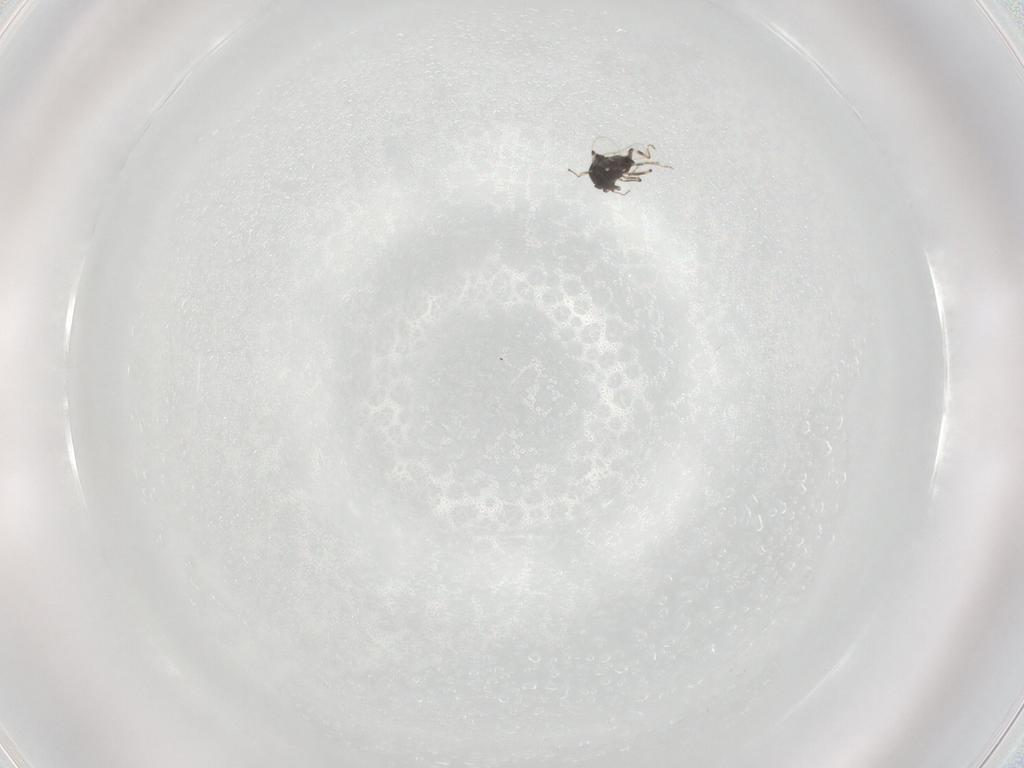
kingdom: Animalia
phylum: Arthropoda
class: Insecta
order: Diptera
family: Ceratopogonidae
